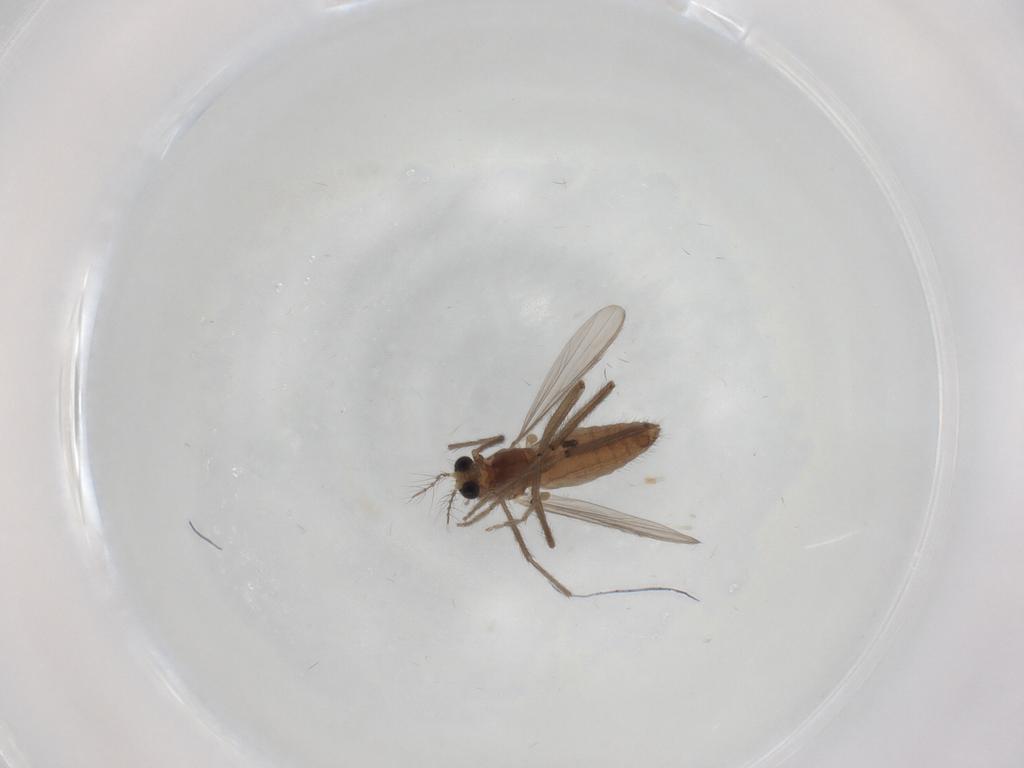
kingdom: Animalia
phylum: Arthropoda
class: Insecta
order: Diptera
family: Chironomidae
